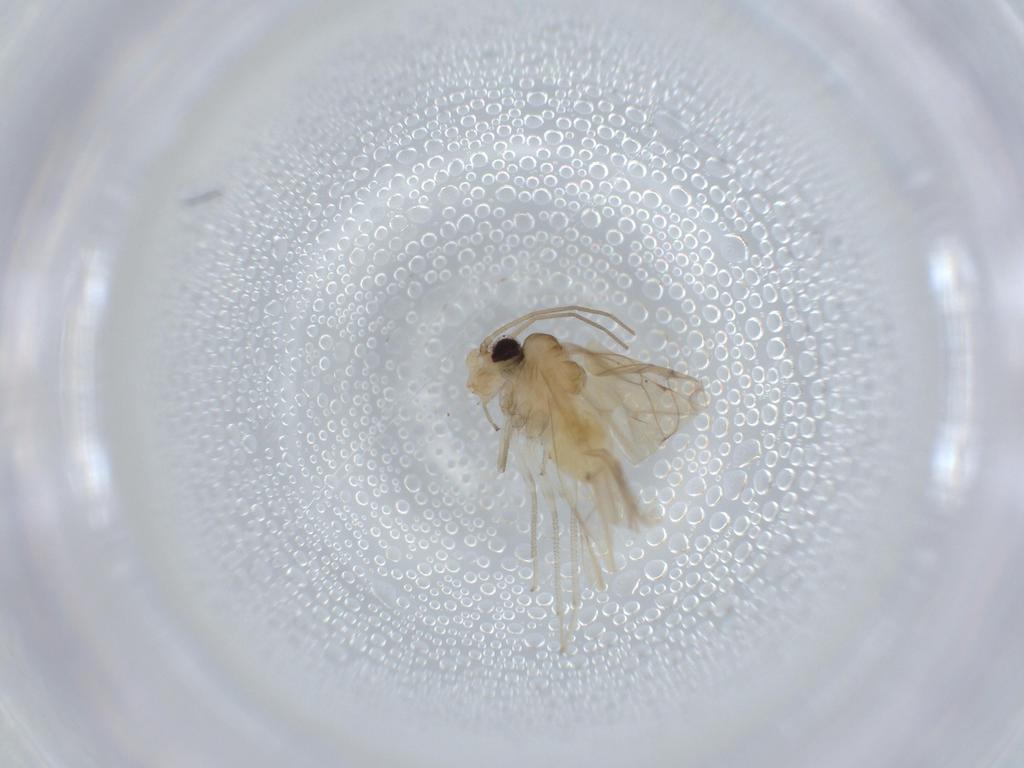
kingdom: Animalia
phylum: Arthropoda
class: Insecta
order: Psocodea
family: Caeciliusidae
